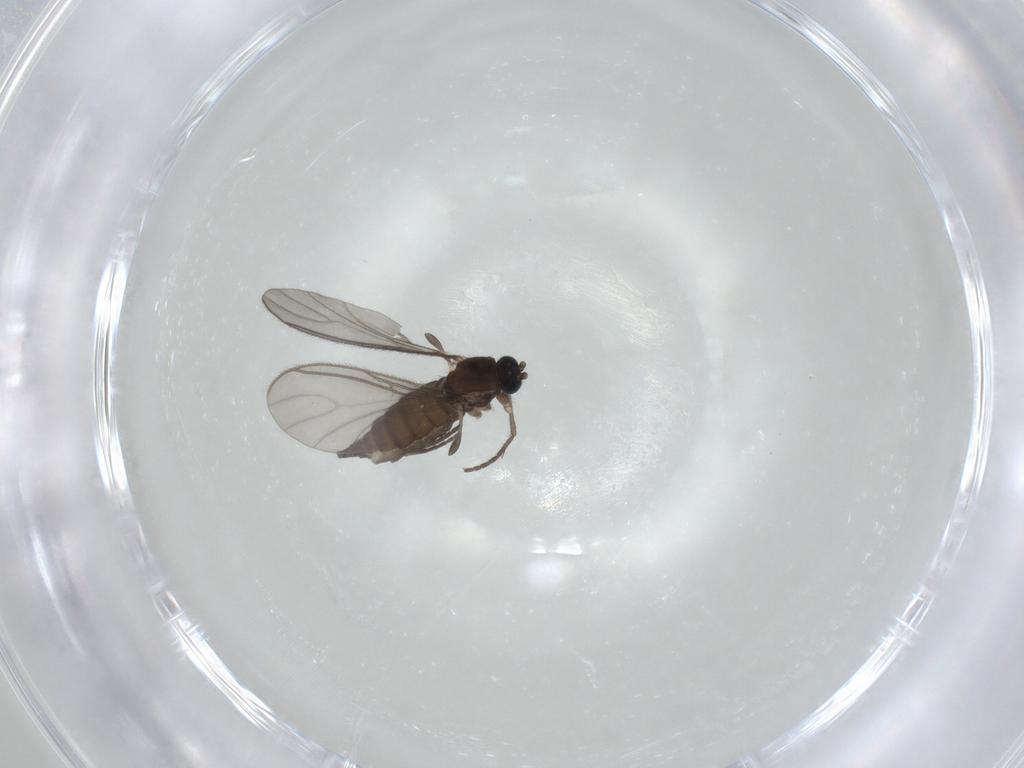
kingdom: Animalia
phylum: Arthropoda
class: Insecta
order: Diptera
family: Sciaridae
